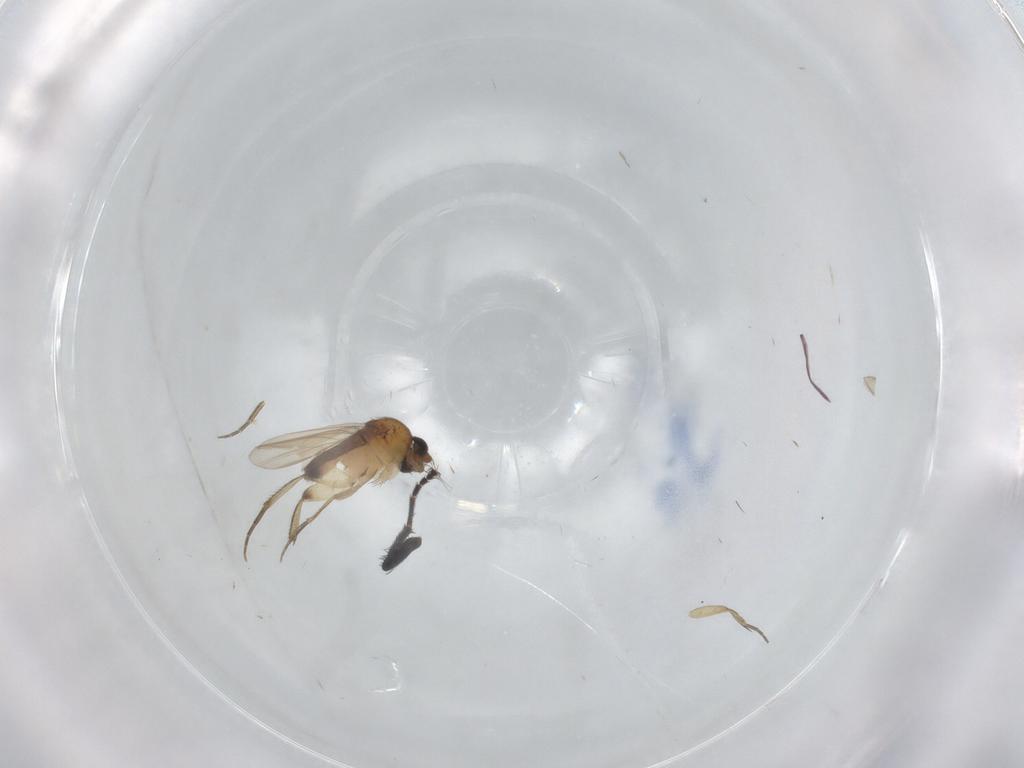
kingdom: Animalia
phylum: Arthropoda
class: Insecta
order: Diptera
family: Phoridae
